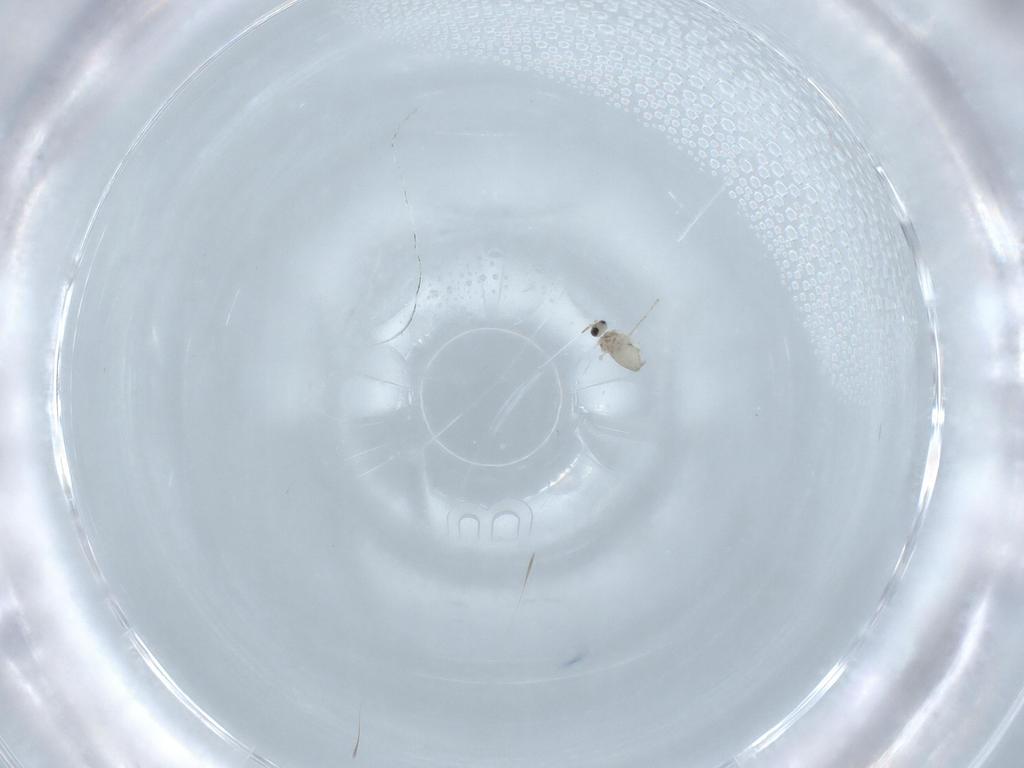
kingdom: Animalia
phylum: Arthropoda
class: Insecta
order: Diptera
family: Cecidomyiidae
